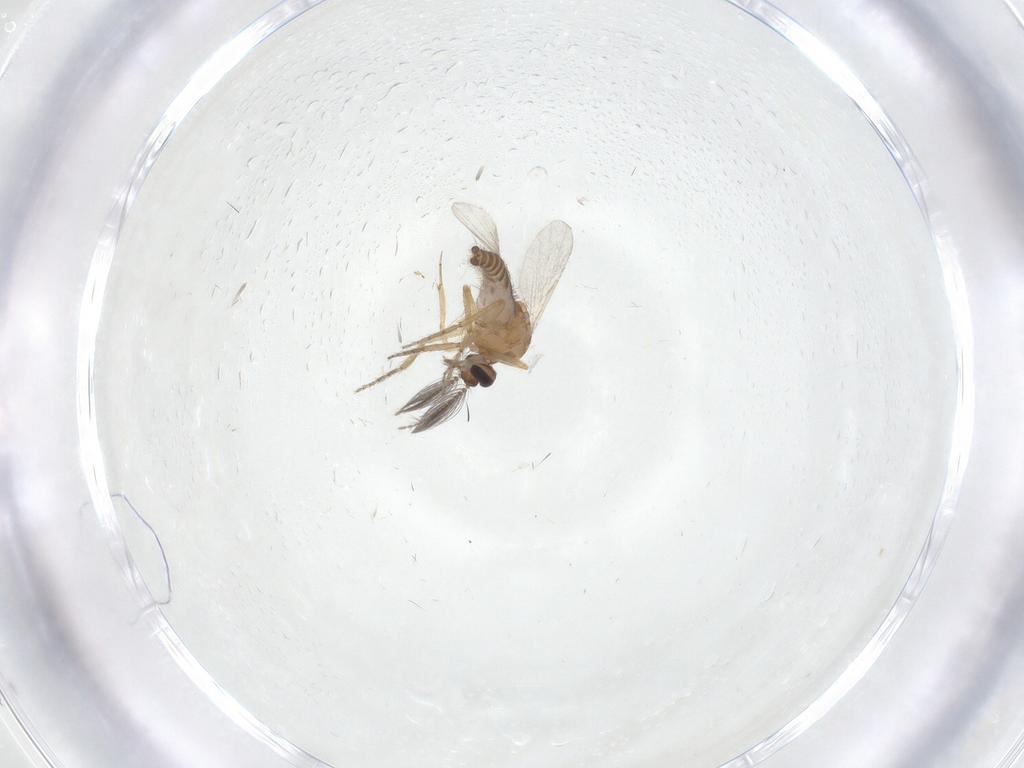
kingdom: Animalia
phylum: Arthropoda
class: Insecta
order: Diptera
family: Ceratopogonidae
